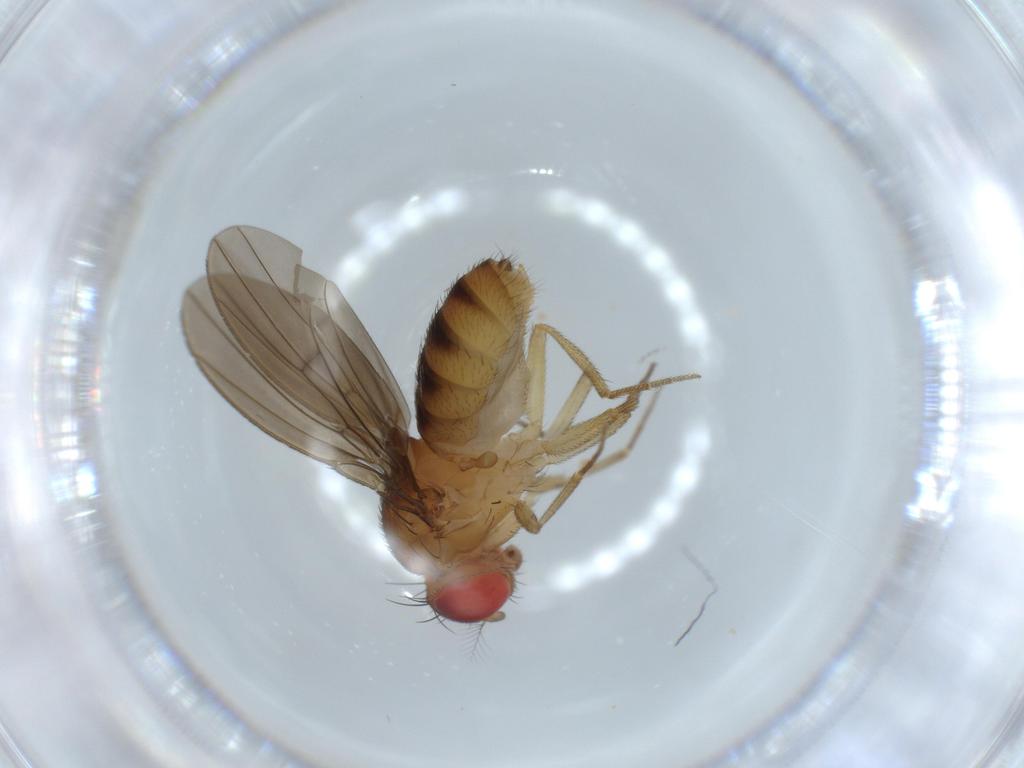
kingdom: Animalia
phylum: Arthropoda
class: Insecta
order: Diptera
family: Drosophilidae
